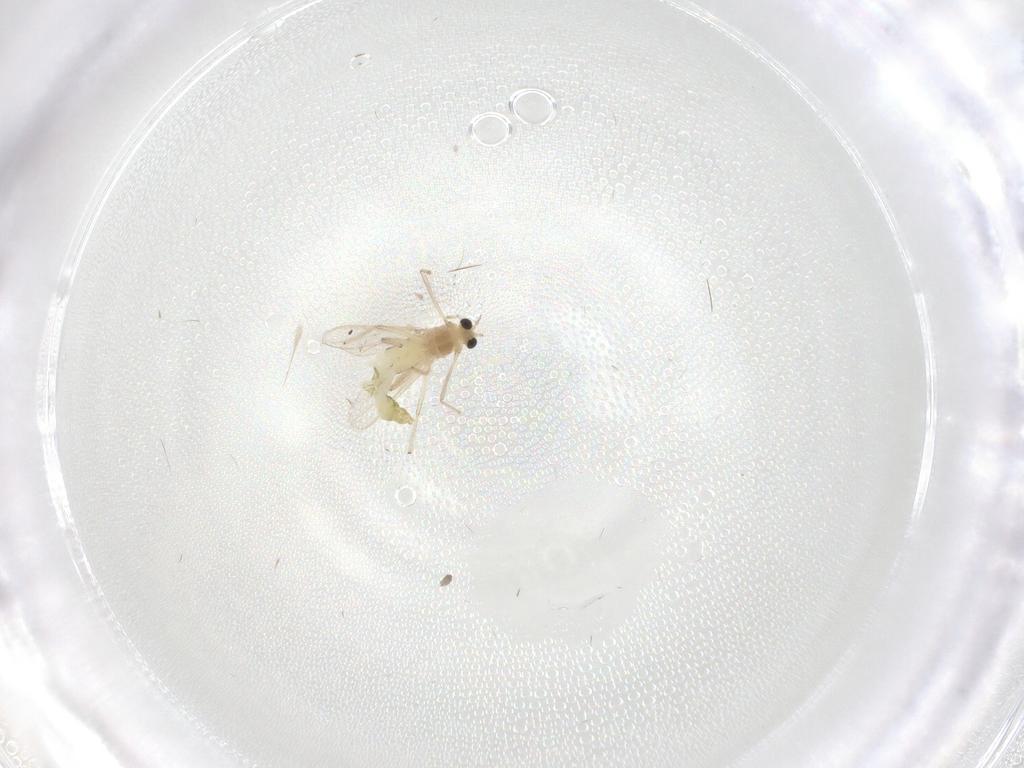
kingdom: Animalia
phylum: Arthropoda
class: Insecta
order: Diptera
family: Chironomidae
